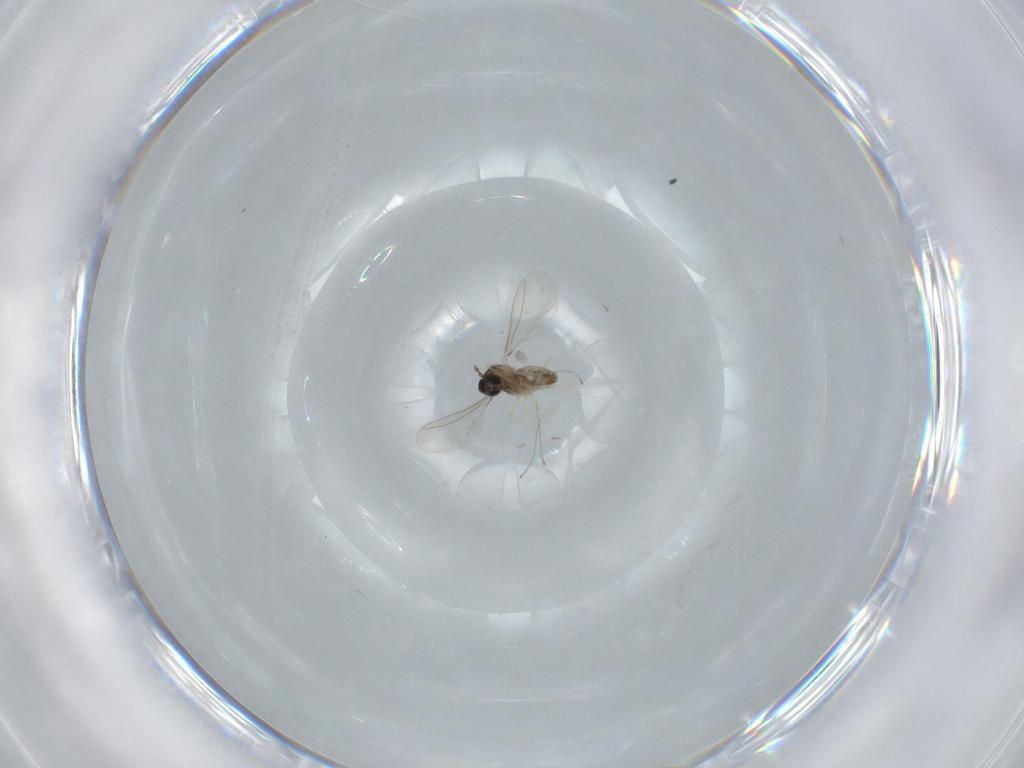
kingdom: Animalia
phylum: Arthropoda
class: Insecta
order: Diptera
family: Cecidomyiidae
